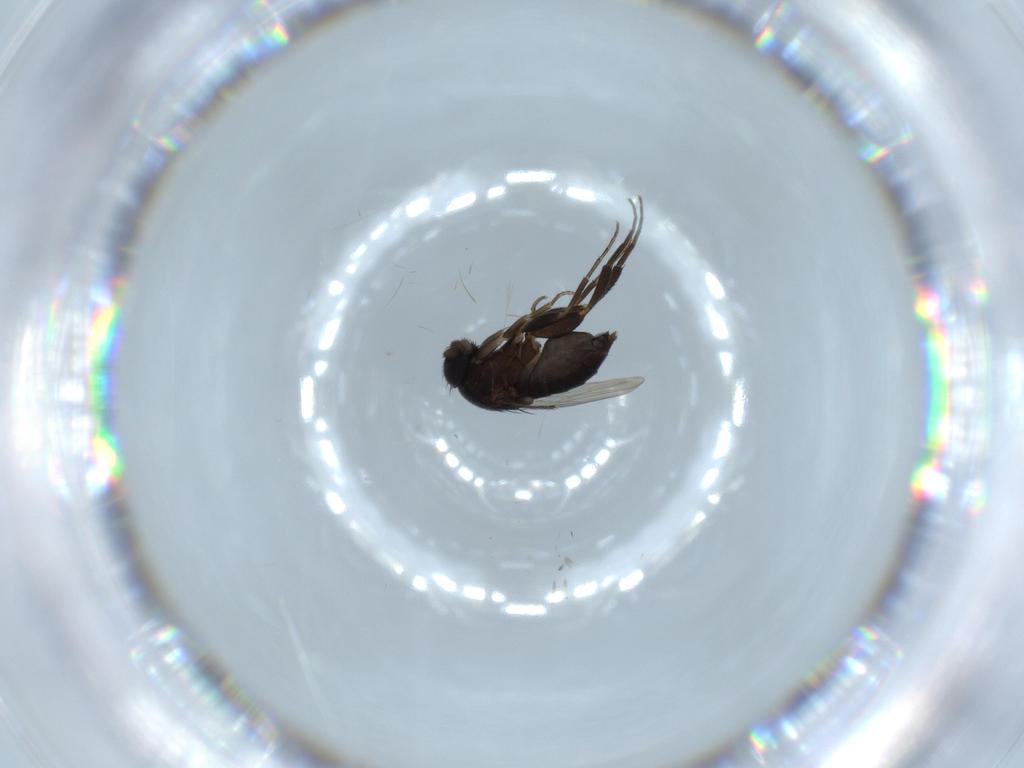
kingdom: Animalia
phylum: Arthropoda
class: Insecta
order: Diptera
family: Phoridae
